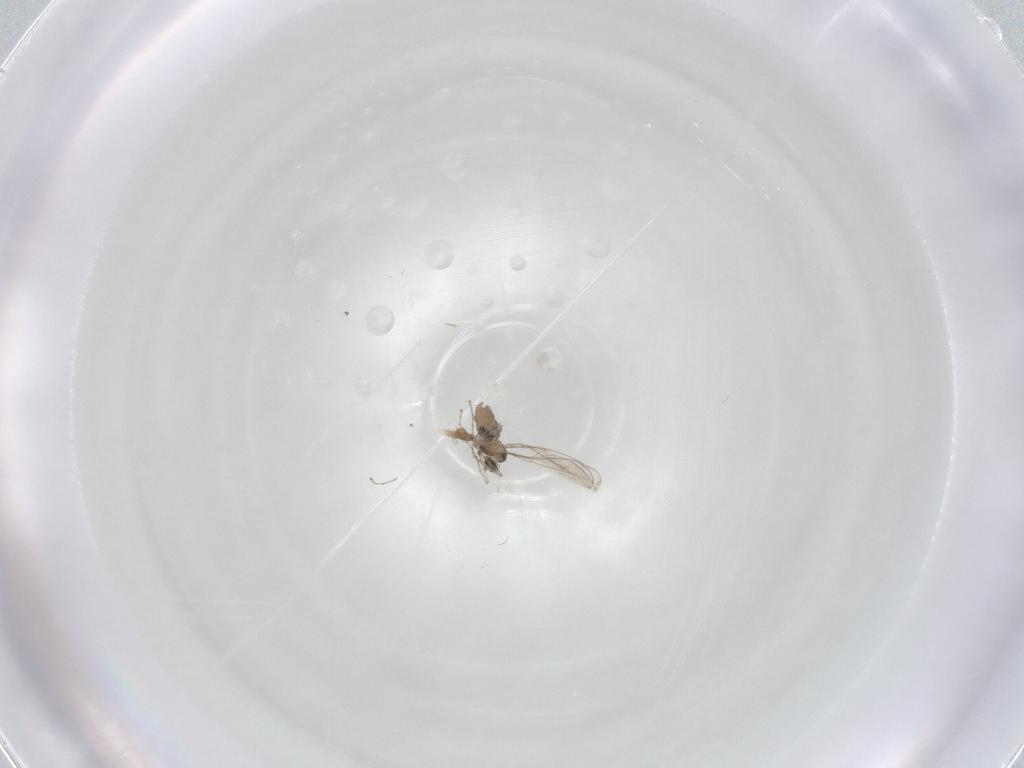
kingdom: Animalia
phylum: Arthropoda
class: Insecta
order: Diptera
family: Cecidomyiidae
